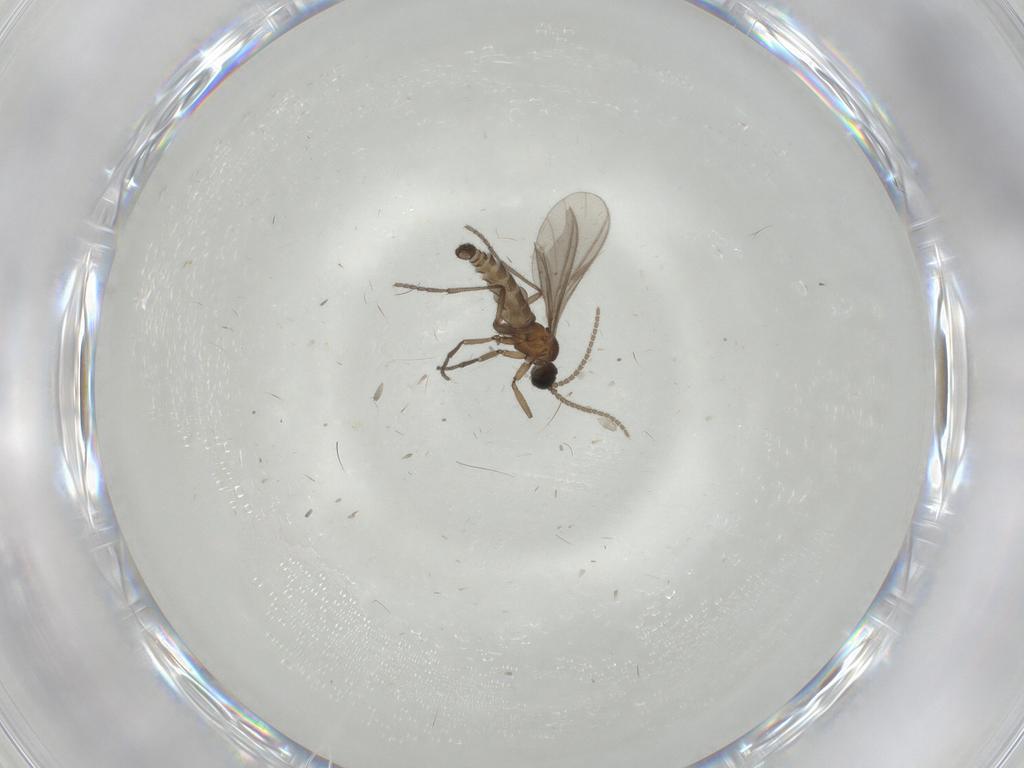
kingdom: Animalia
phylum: Arthropoda
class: Insecta
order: Diptera
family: Sciaridae
